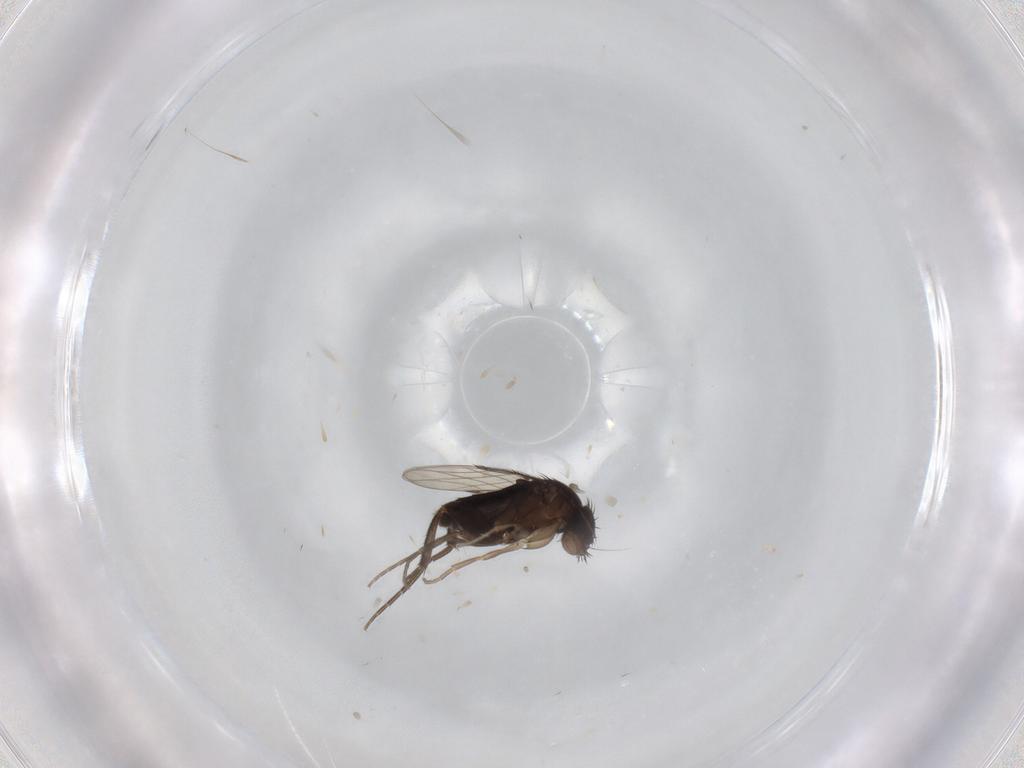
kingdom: Animalia
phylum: Arthropoda
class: Insecta
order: Diptera
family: Phoridae
